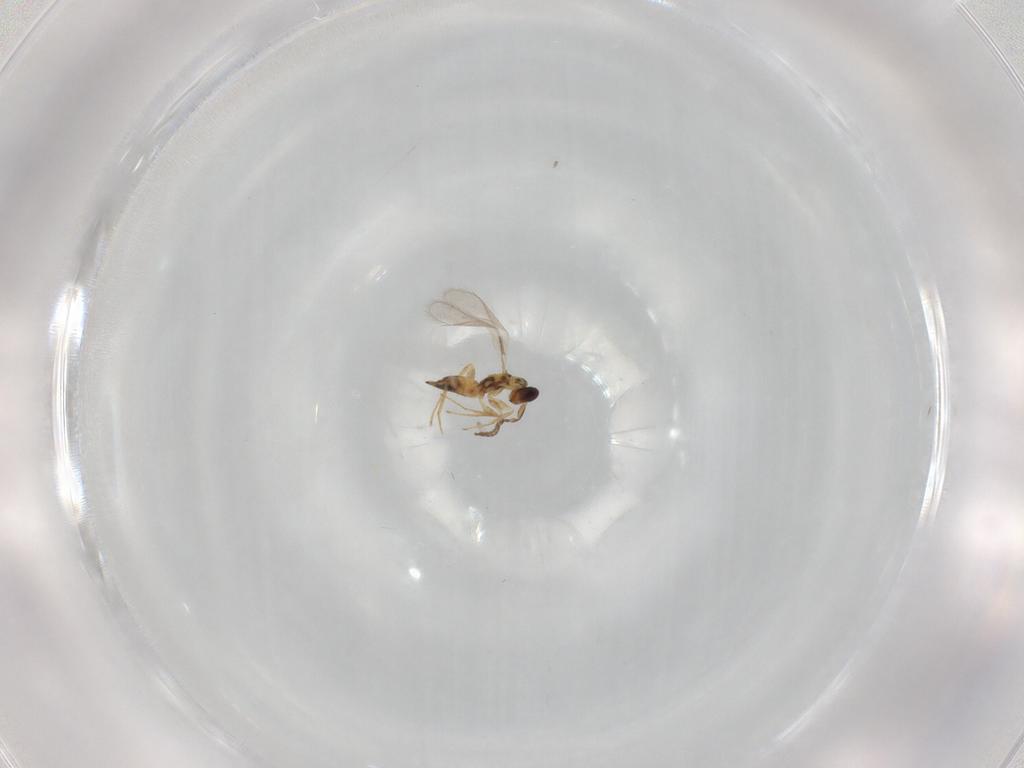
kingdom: Animalia
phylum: Arthropoda
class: Insecta
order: Hymenoptera
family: Mymaridae
